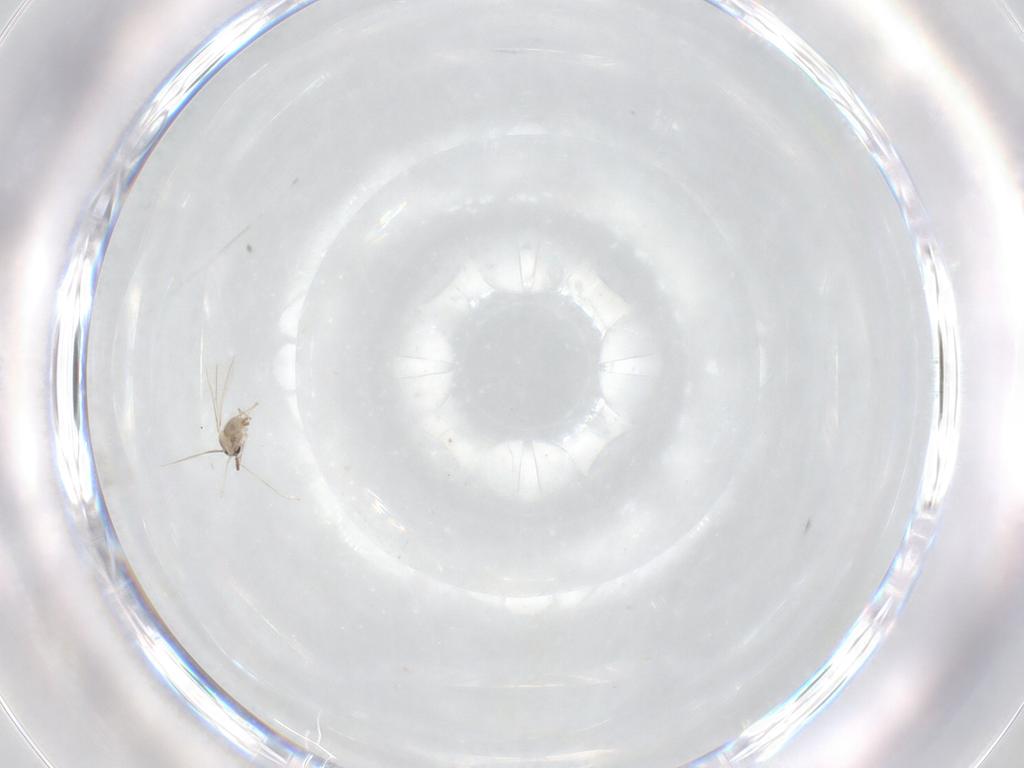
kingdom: Animalia
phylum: Arthropoda
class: Insecta
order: Diptera
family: Cecidomyiidae
